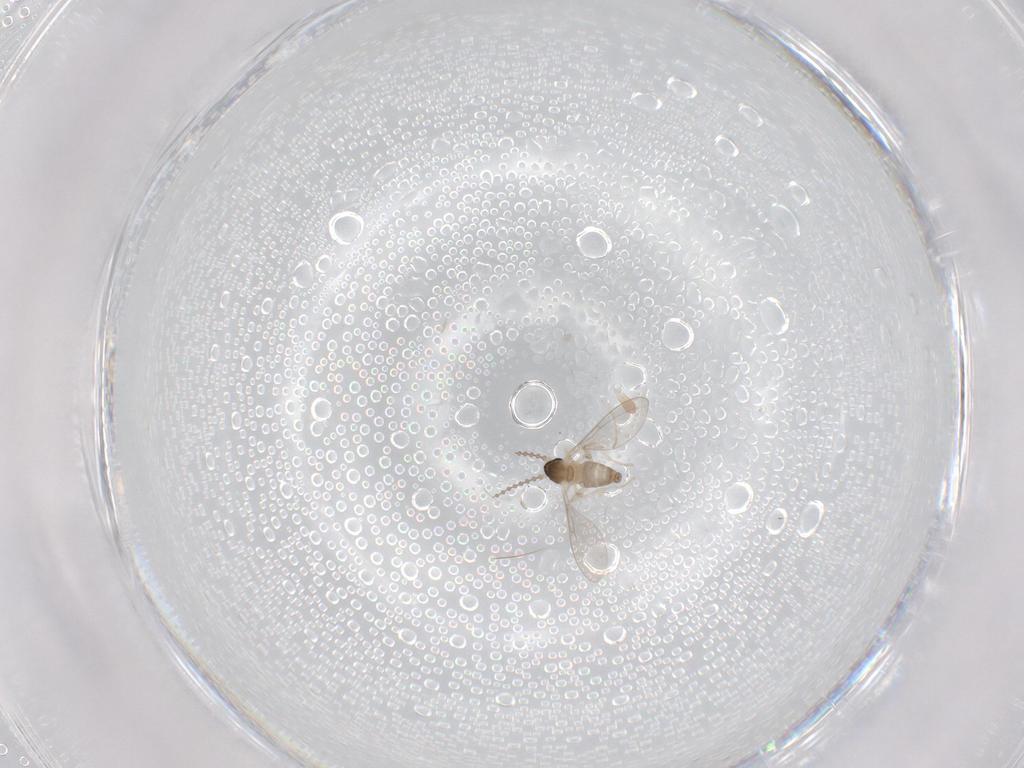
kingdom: Animalia
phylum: Arthropoda
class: Insecta
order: Diptera
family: Cecidomyiidae
